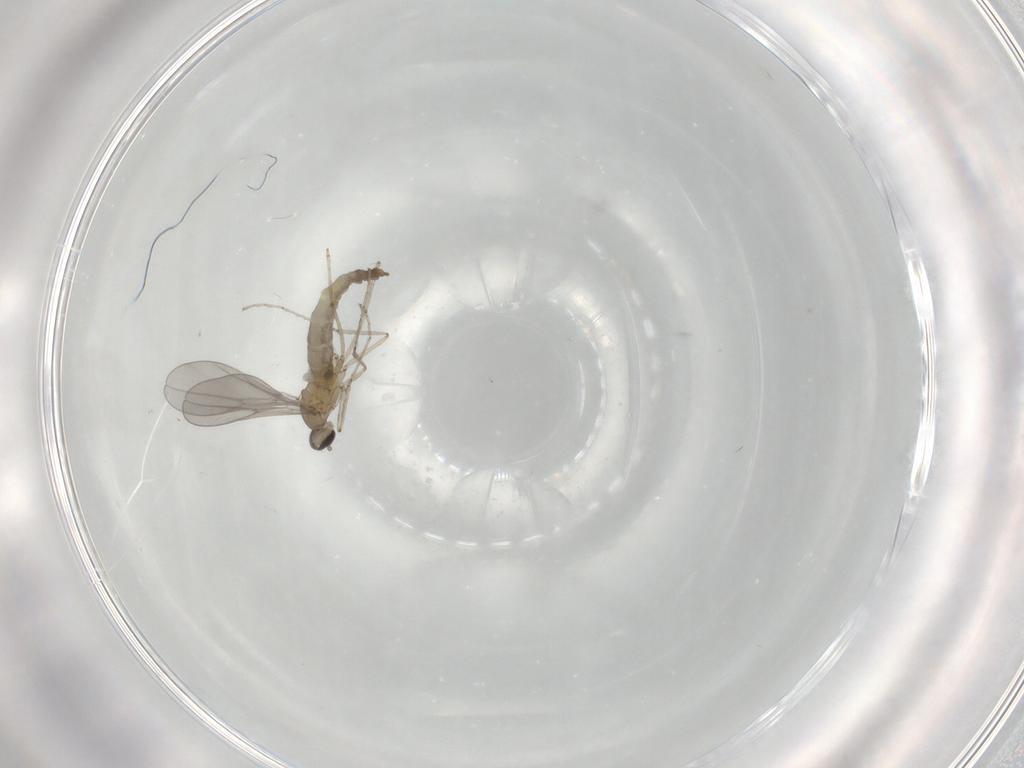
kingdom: Animalia
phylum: Arthropoda
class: Insecta
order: Diptera
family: Cecidomyiidae
